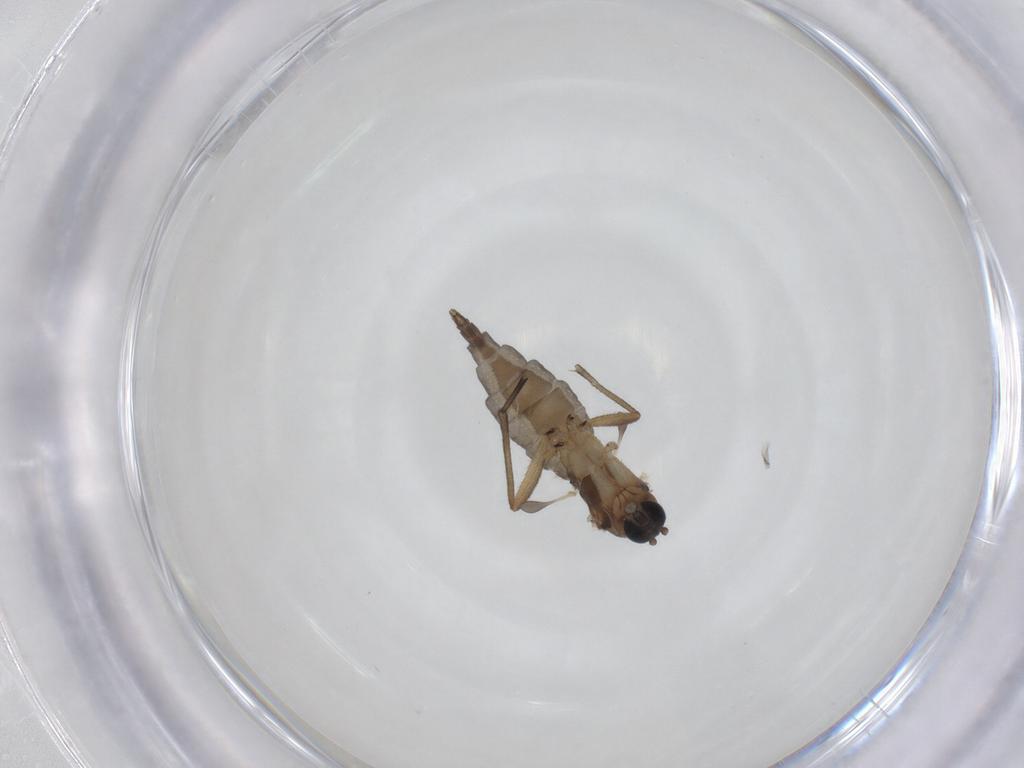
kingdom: Animalia
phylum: Arthropoda
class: Insecta
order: Diptera
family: Sciaridae
